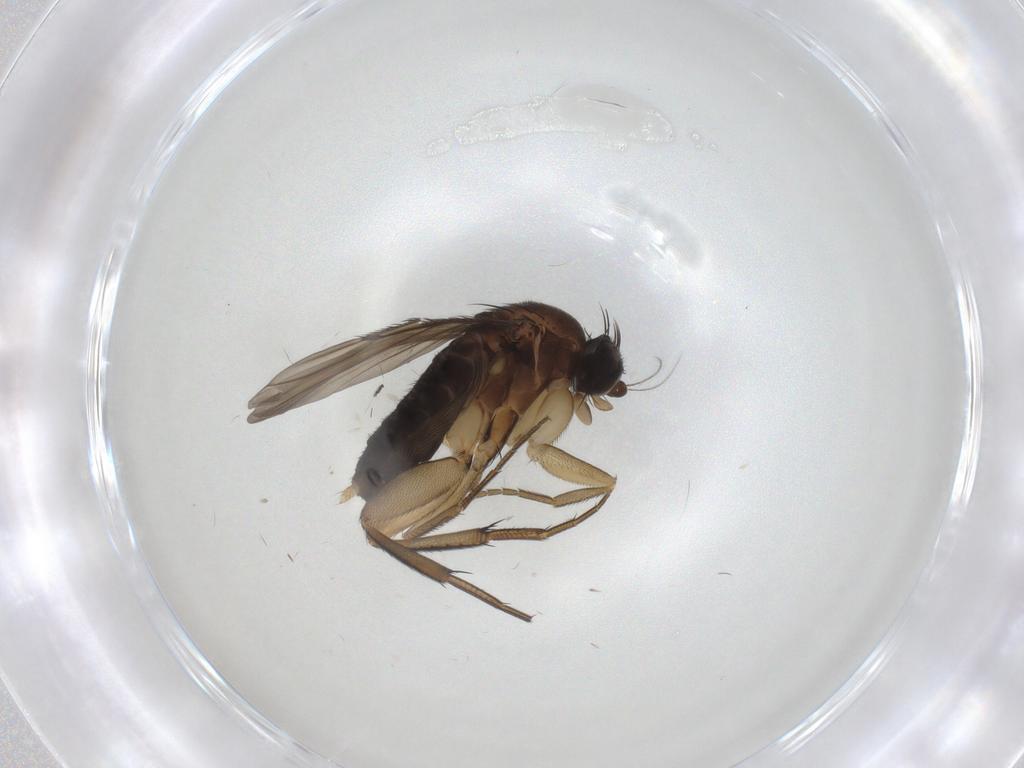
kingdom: Animalia
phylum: Arthropoda
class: Insecta
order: Diptera
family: Phoridae
